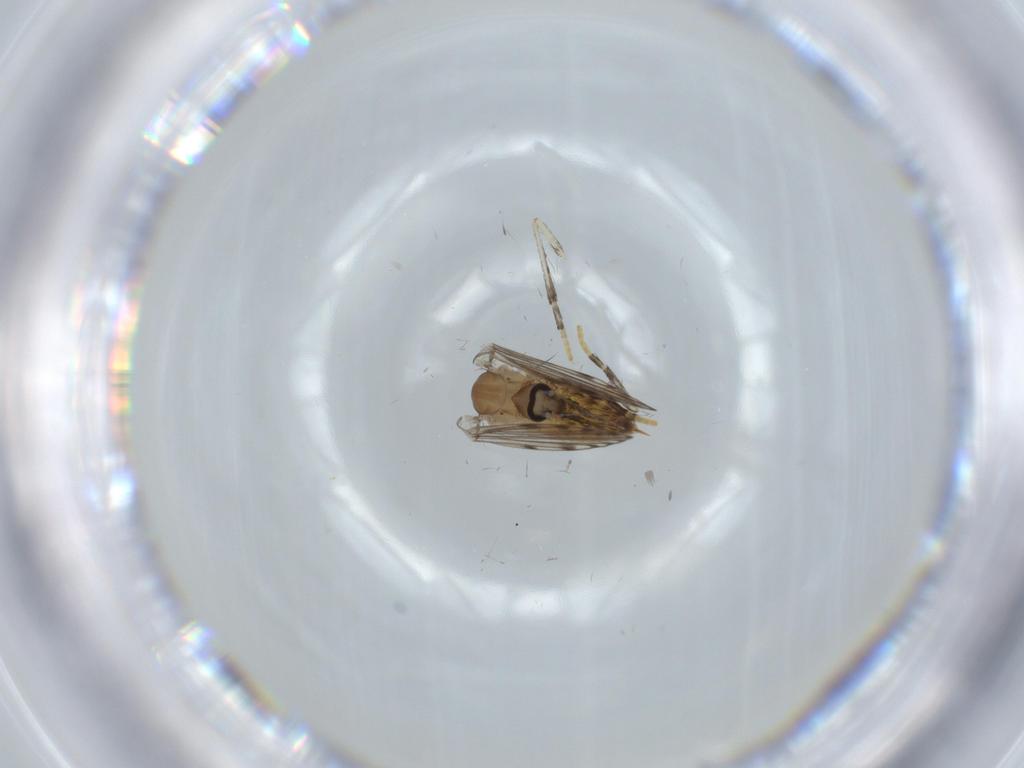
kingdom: Animalia
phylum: Arthropoda
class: Insecta
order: Diptera
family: Psychodidae
